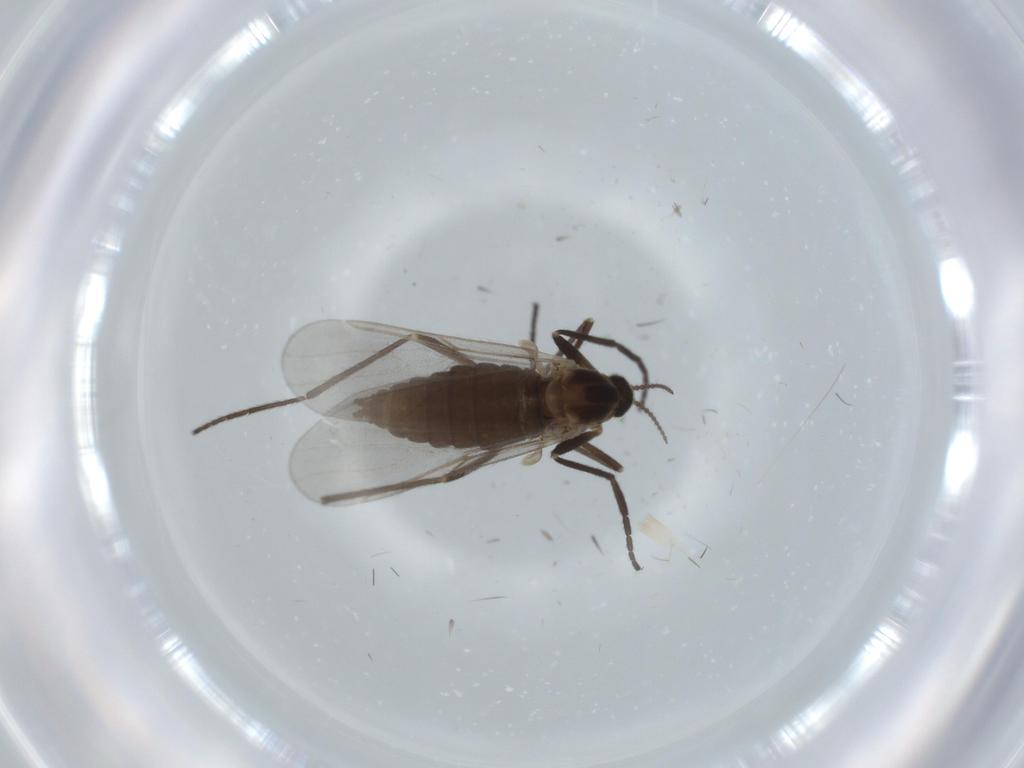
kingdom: Animalia
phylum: Arthropoda
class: Insecta
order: Diptera
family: Cecidomyiidae
